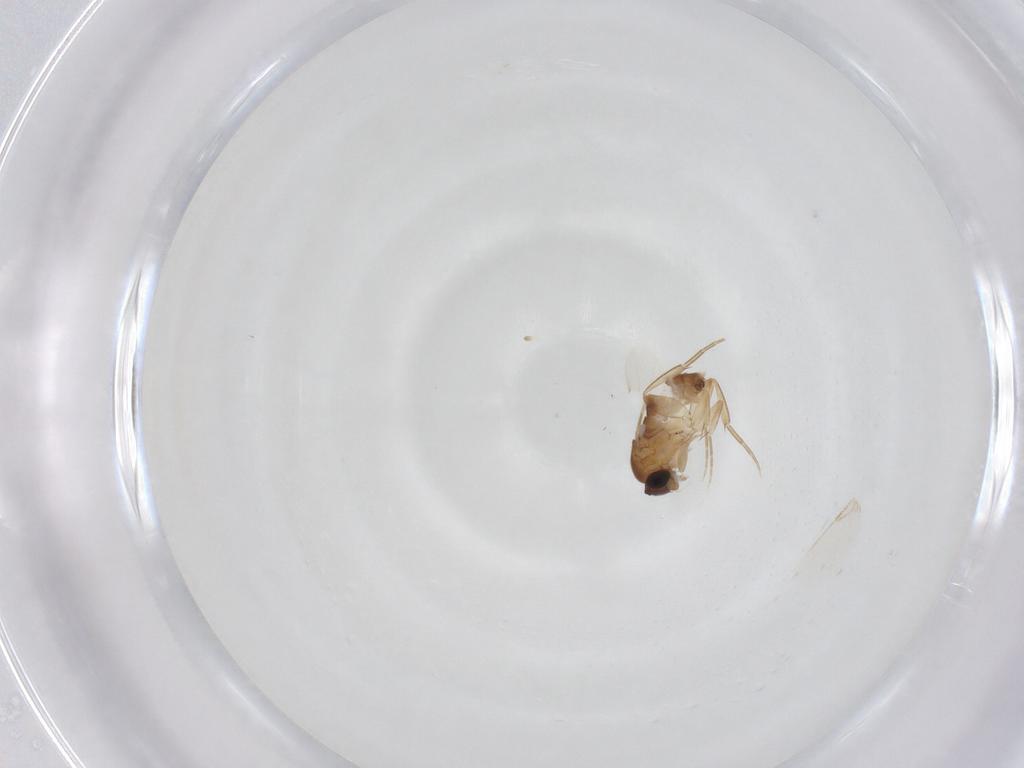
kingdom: Animalia
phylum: Arthropoda
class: Insecta
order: Diptera
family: Phoridae
